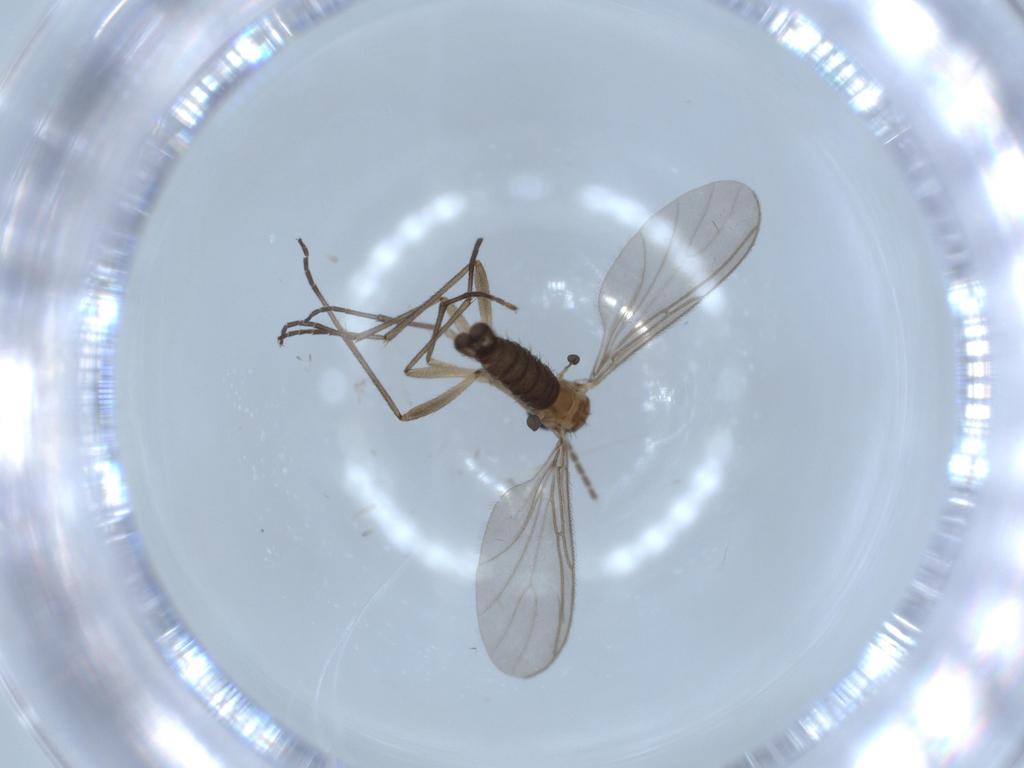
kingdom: Animalia
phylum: Arthropoda
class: Insecta
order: Diptera
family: Sciaridae
